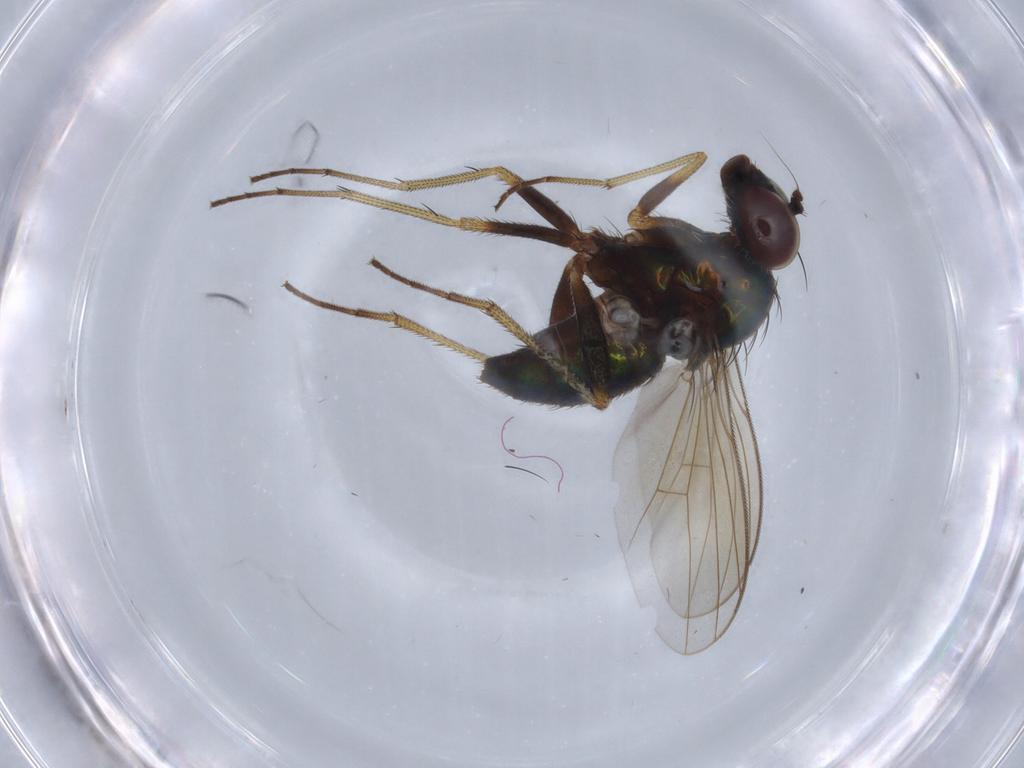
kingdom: Animalia
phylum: Arthropoda
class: Insecta
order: Diptera
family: Dolichopodidae
